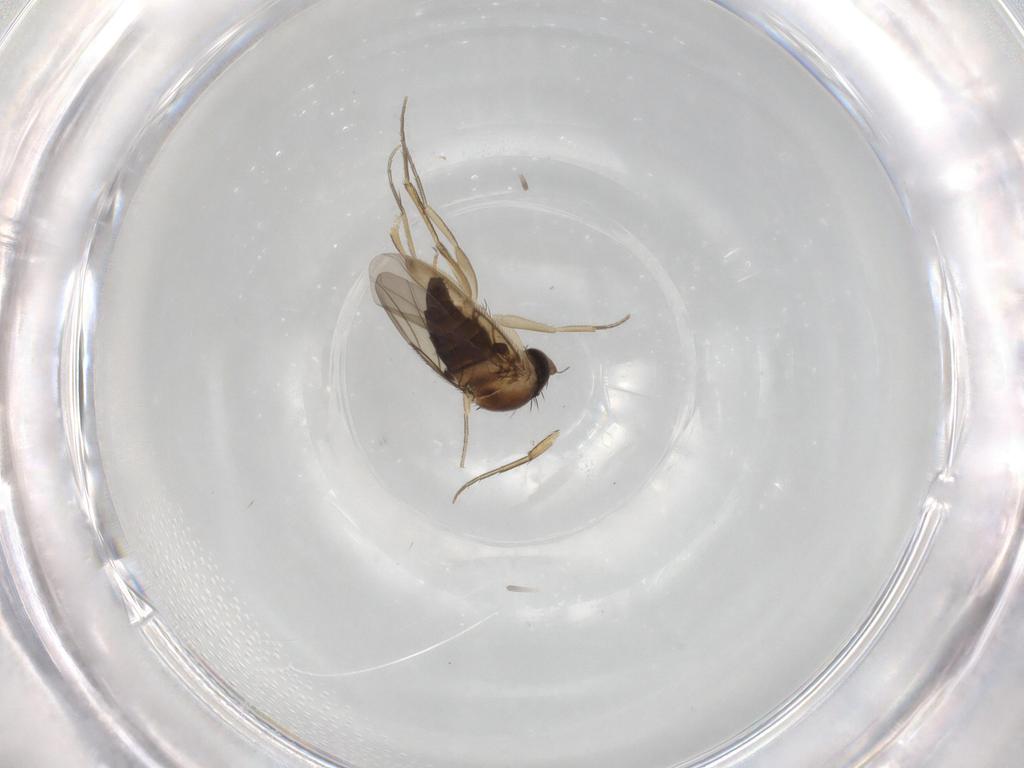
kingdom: Animalia
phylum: Arthropoda
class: Insecta
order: Diptera
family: Phoridae
